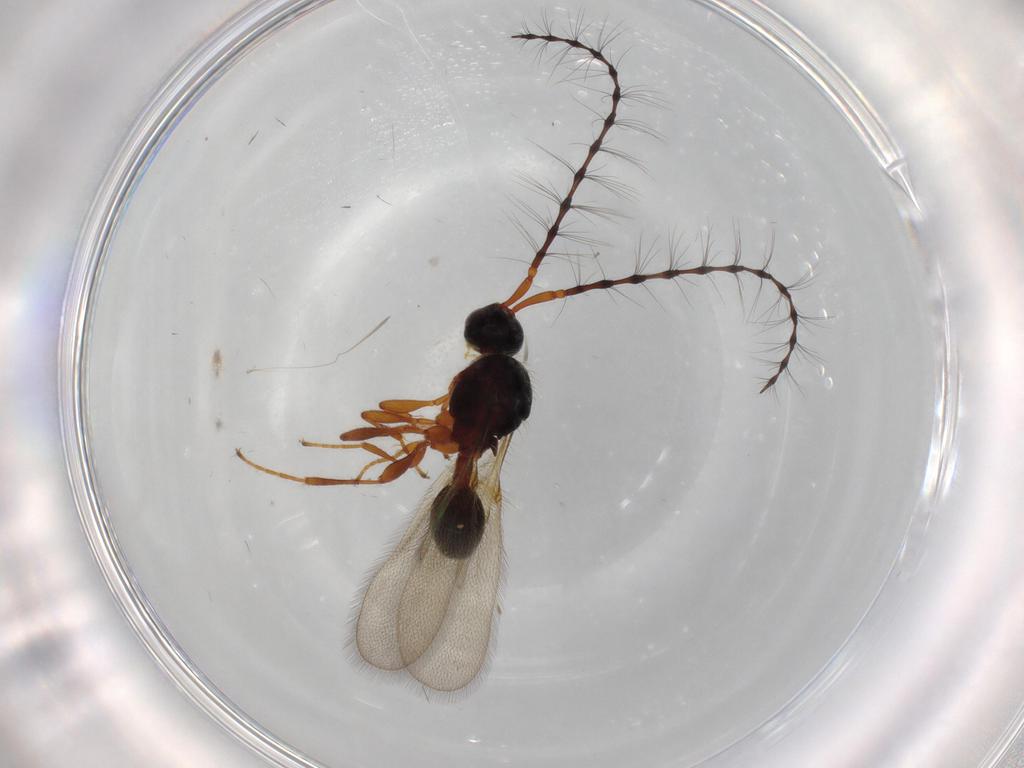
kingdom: Animalia
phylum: Arthropoda
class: Insecta
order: Hymenoptera
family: Diapriidae
